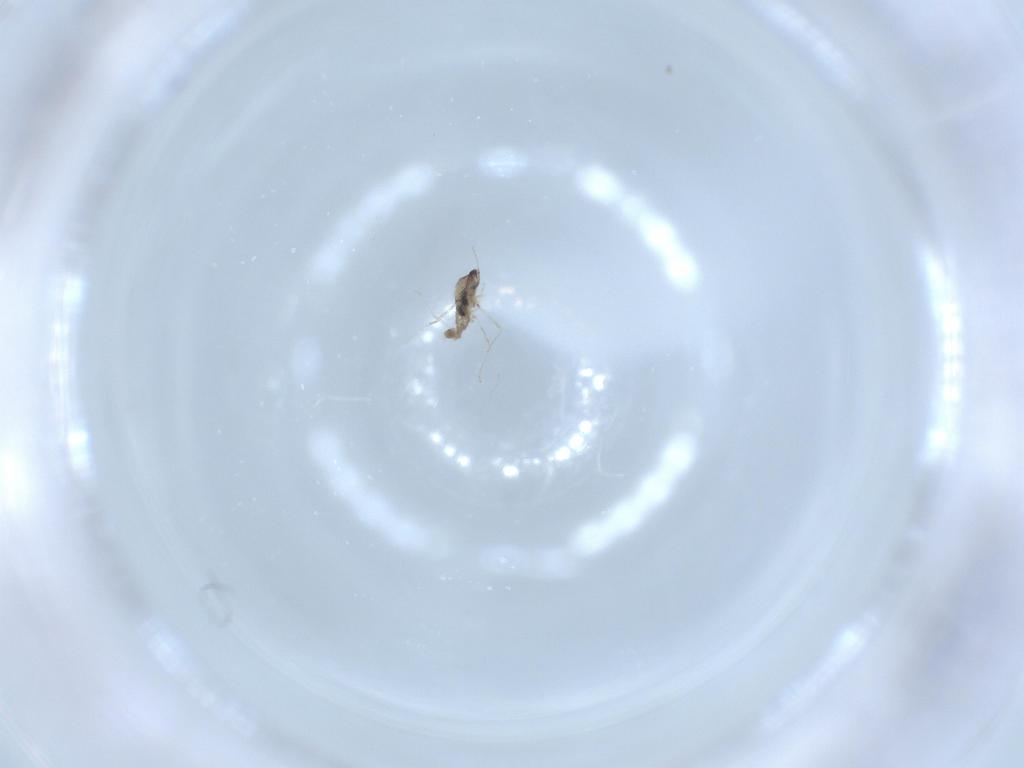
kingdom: Animalia
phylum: Arthropoda
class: Insecta
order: Diptera
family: Cecidomyiidae
